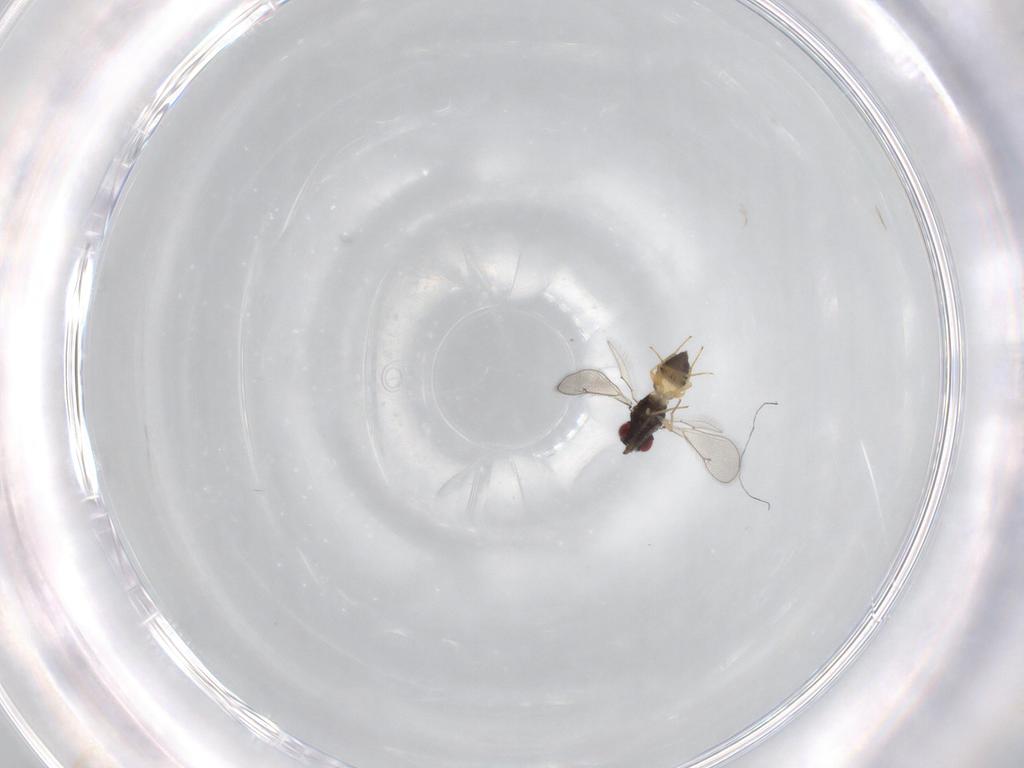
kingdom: Animalia
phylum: Arthropoda
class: Insecta
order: Hymenoptera
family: Eulophidae
